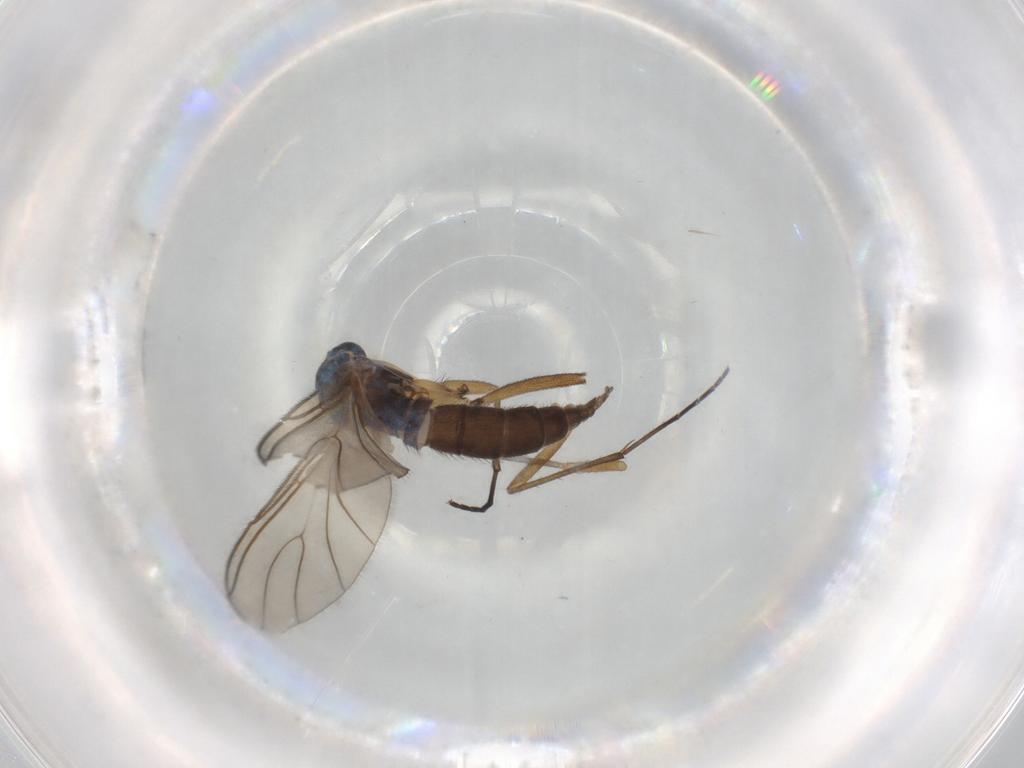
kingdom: Animalia
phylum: Arthropoda
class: Insecta
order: Diptera
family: Sciaridae
